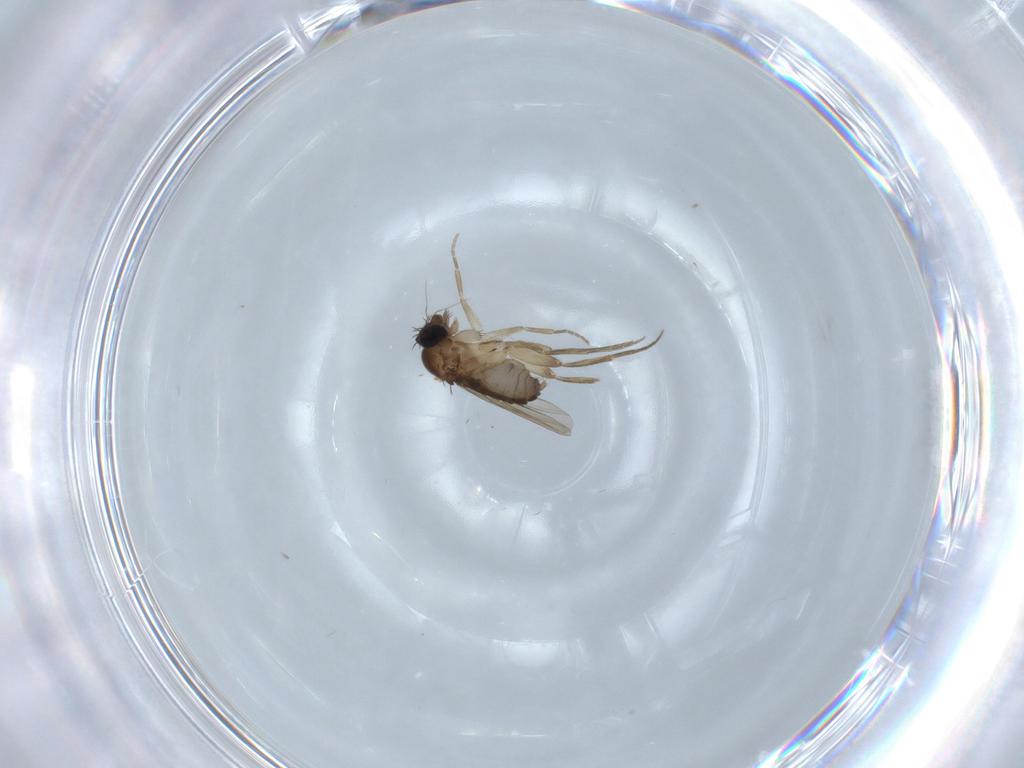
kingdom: Animalia
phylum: Arthropoda
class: Insecta
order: Diptera
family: Phoridae
